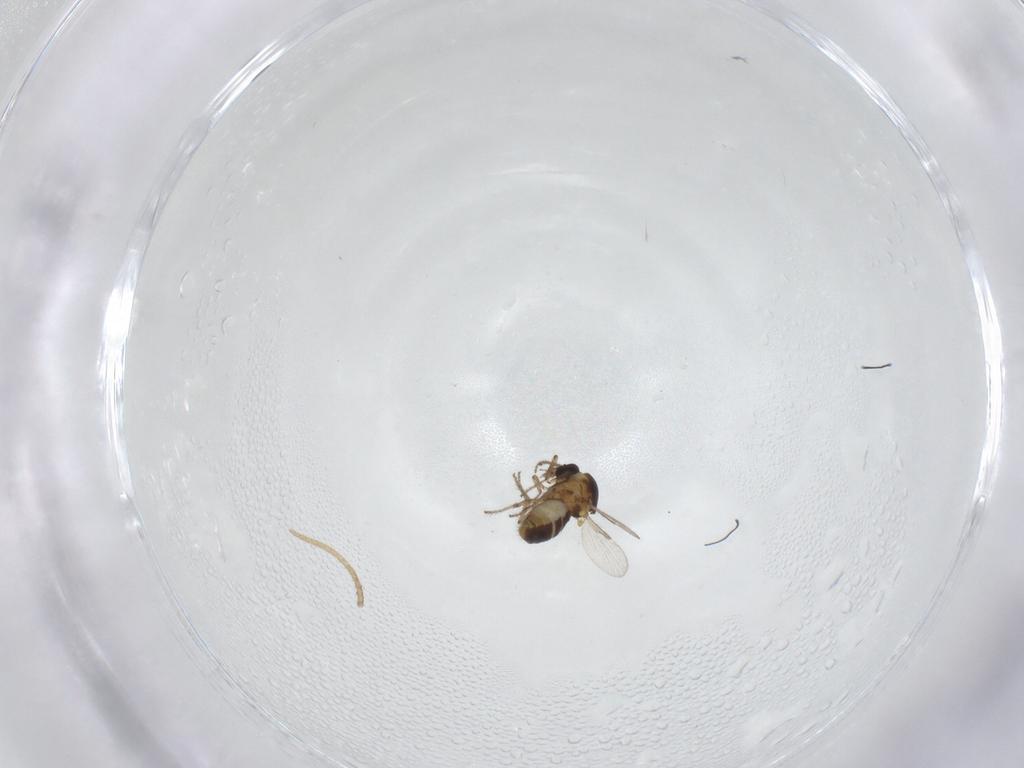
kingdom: Animalia
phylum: Arthropoda
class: Insecta
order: Diptera
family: Ceratopogonidae
